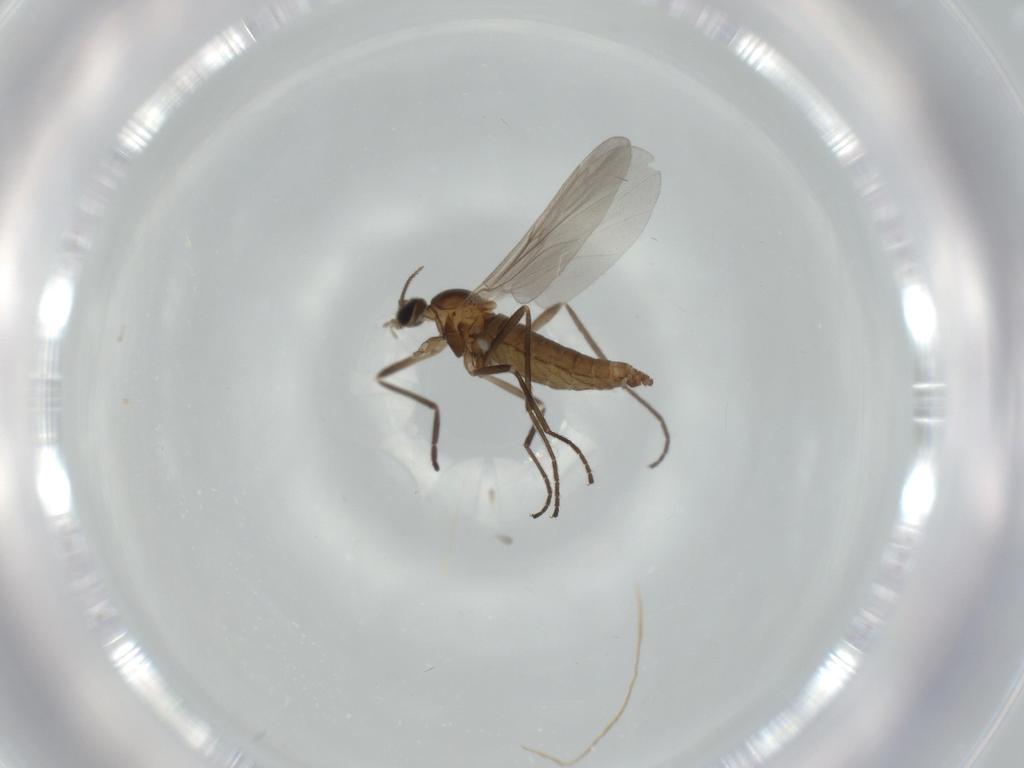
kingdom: Animalia
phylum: Arthropoda
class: Insecta
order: Diptera
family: Cecidomyiidae
